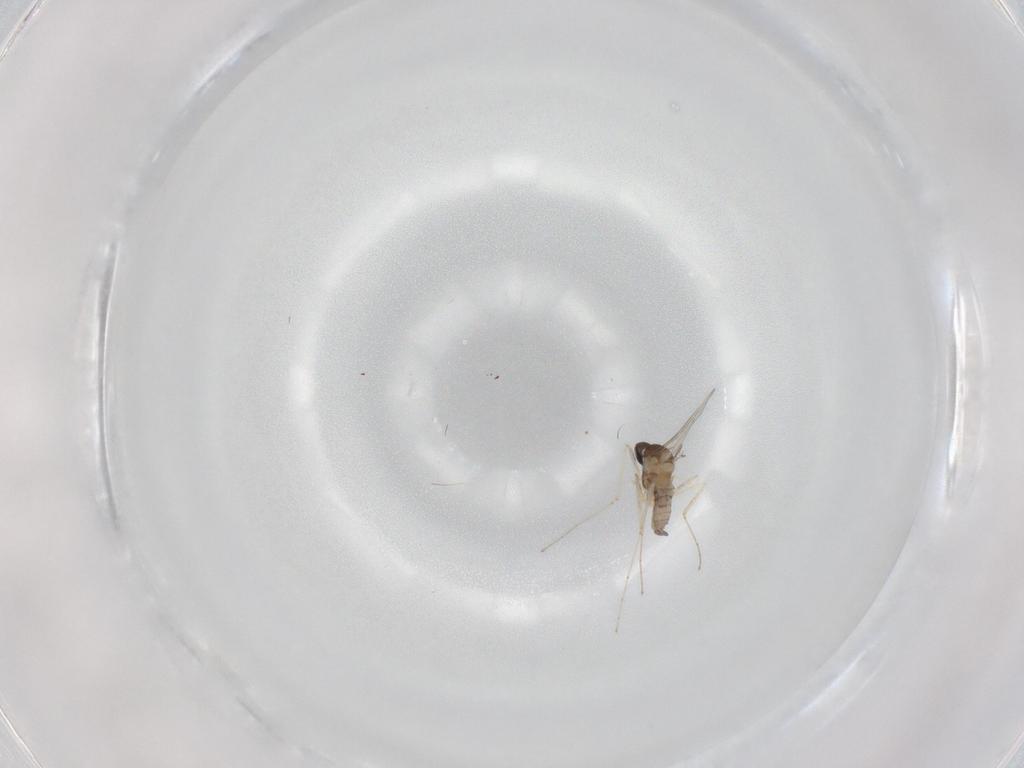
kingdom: Animalia
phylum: Arthropoda
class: Insecta
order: Diptera
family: Cecidomyiidae
